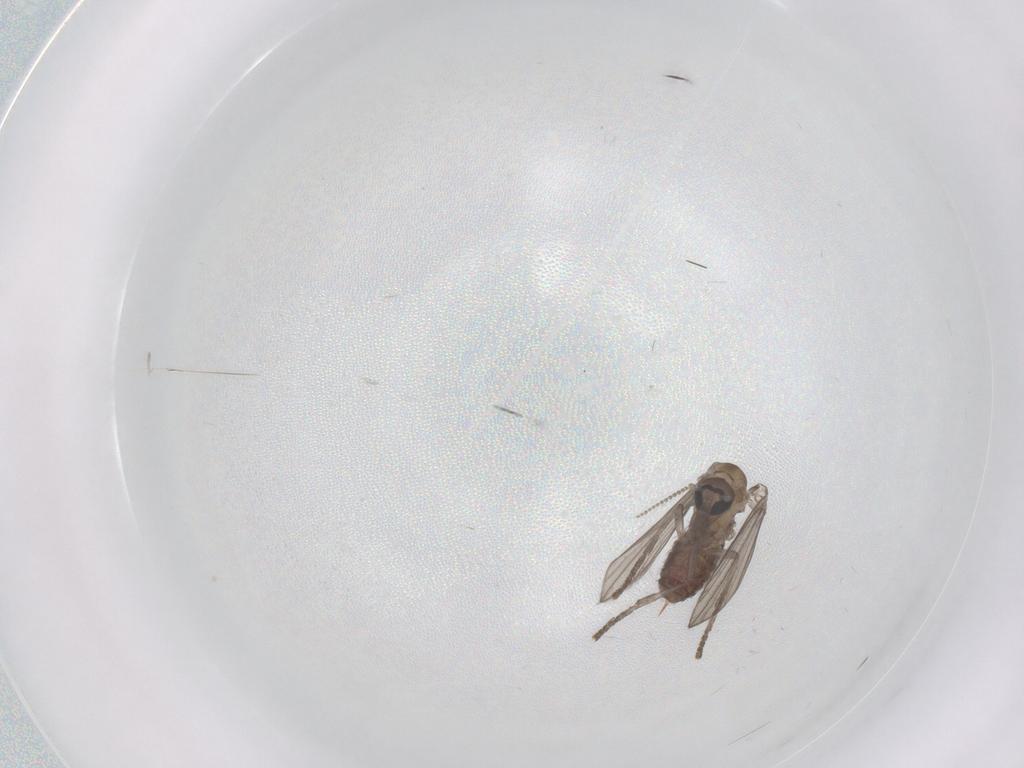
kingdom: Animalia
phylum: Arthropoda
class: Insecta
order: Diptera
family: Psychodidae
